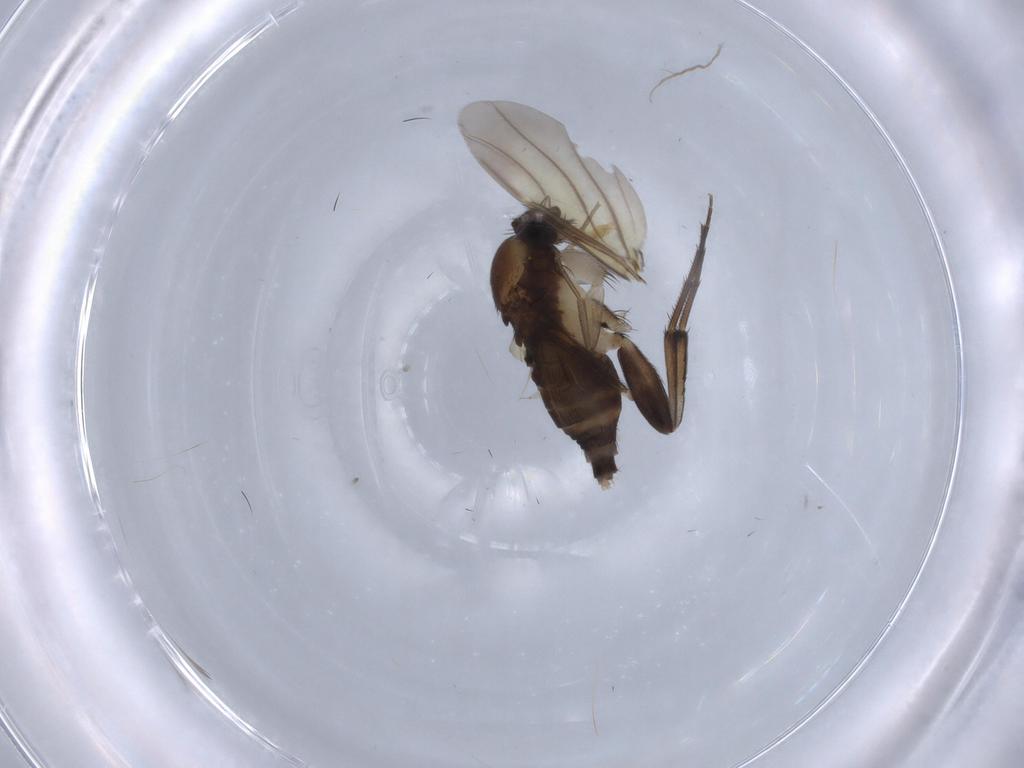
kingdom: Animalia
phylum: Arthropoda
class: Insecta
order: Diptera
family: Phoridae
